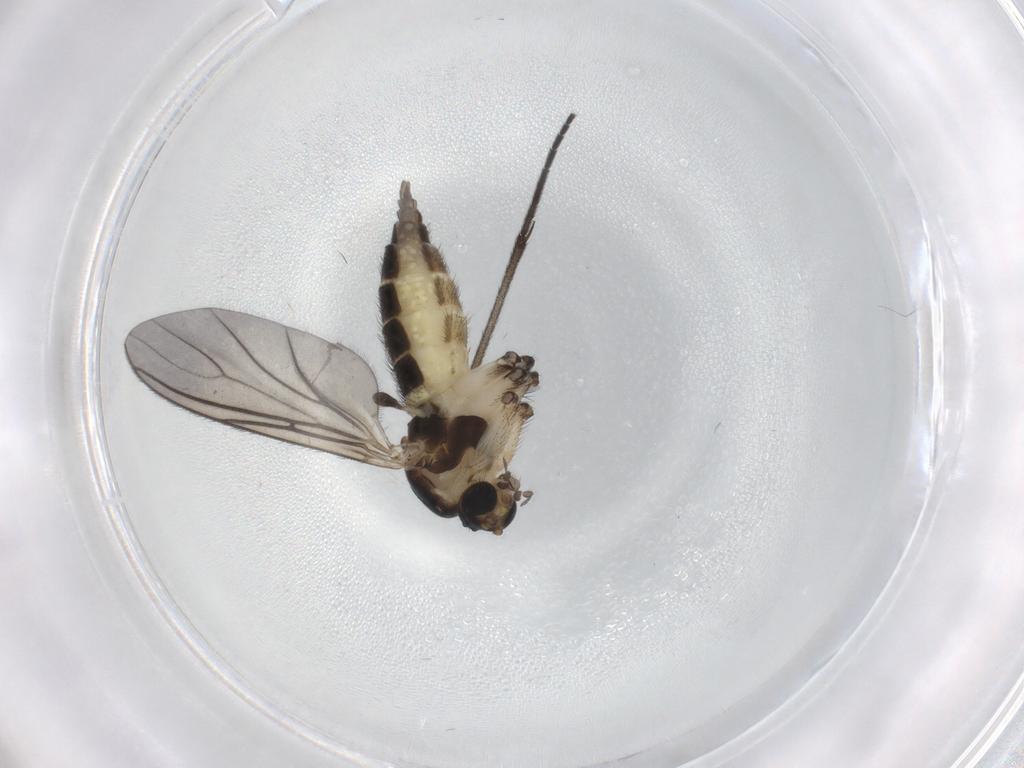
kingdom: Animalia
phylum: Arthropoda
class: Insecta
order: Diptera
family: Sciaridae
